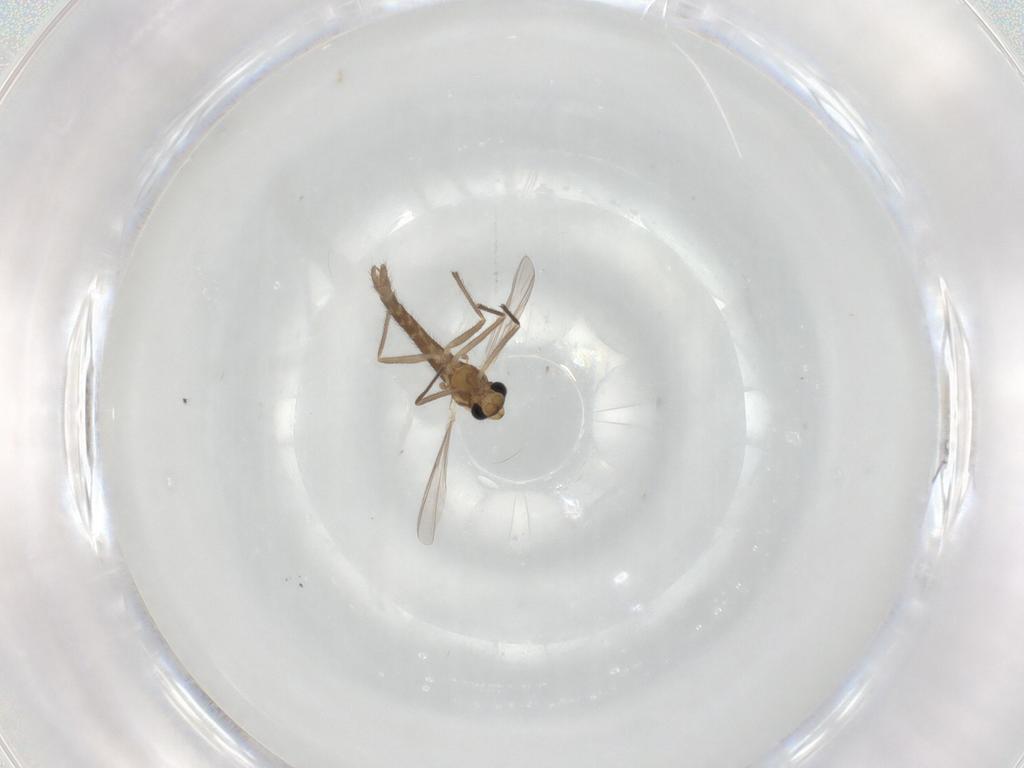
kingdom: Animalia
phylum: Arthropoda
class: Insecta
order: Diptera
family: Chironomidae
